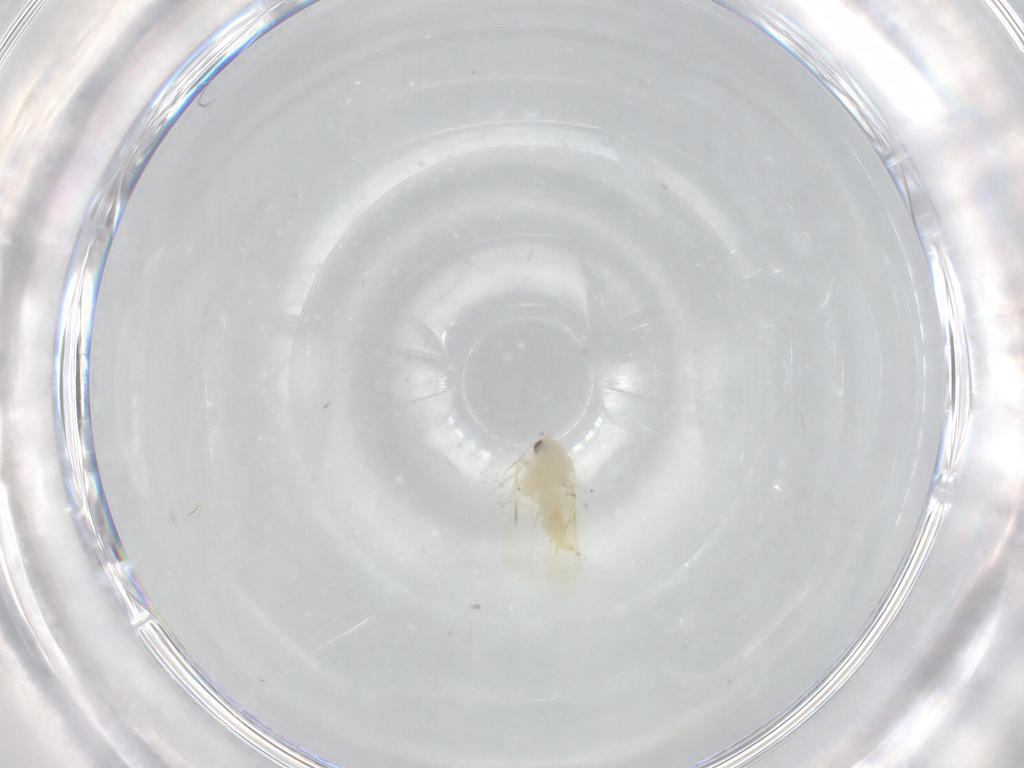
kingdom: Animalia
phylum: Arthropoda
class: Insecta
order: Hemiptera
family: Aleyrodidae
